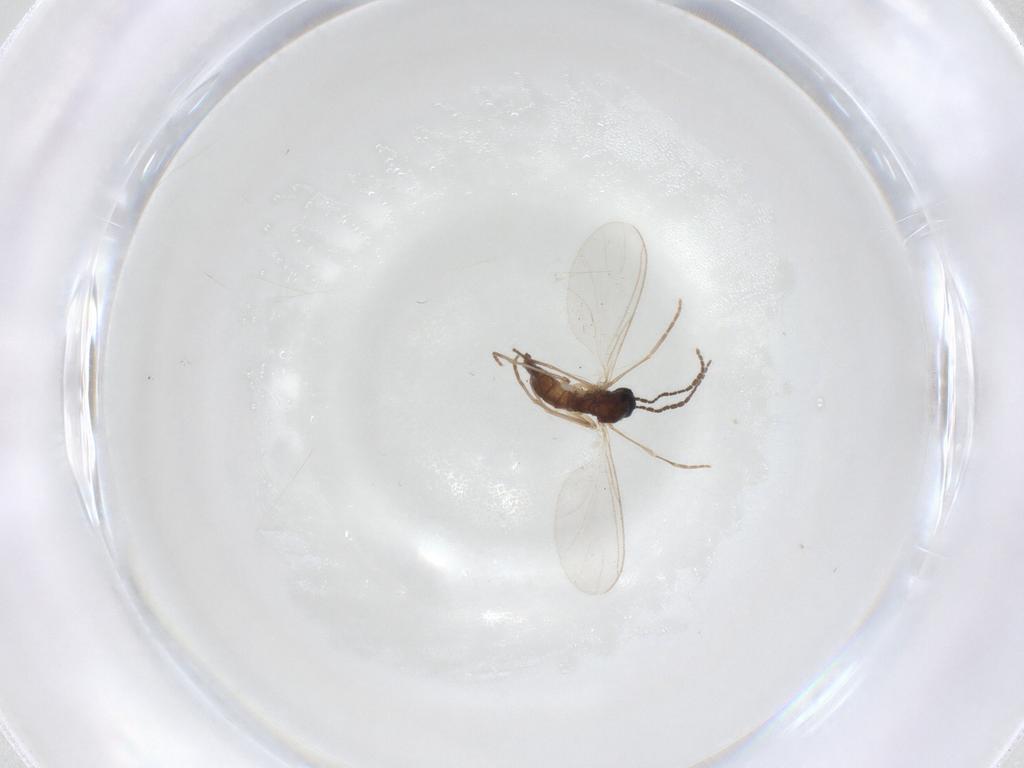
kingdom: Animalia
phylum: Arthropoda
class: Insecta
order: Diptera
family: Sciaridae
